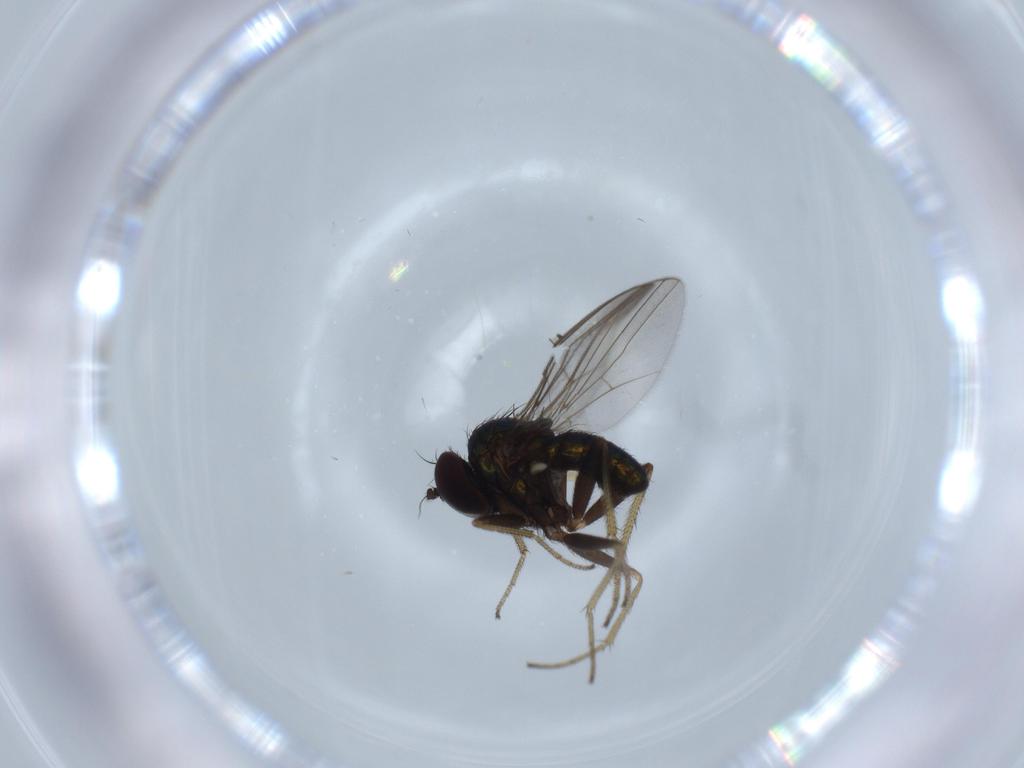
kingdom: Animalia
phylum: Arthropoda
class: Insecta
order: Diptera
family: Dolichopodidae
